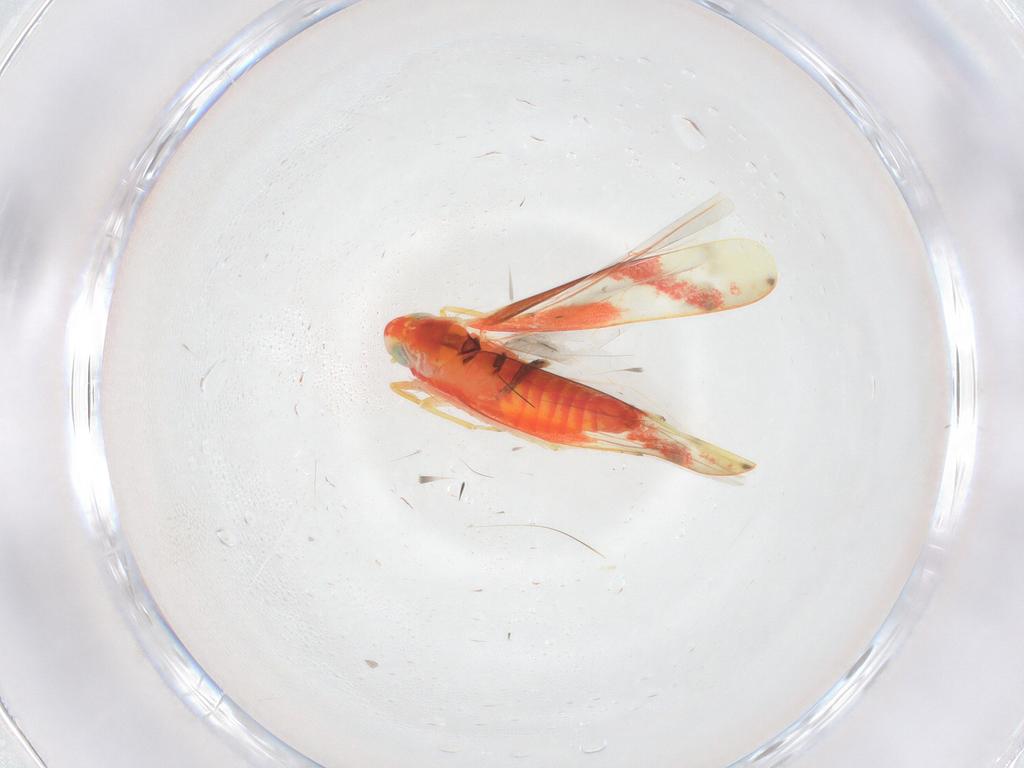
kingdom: Animalia
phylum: Arthropoda
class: Insecta
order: Hemiptera
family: Cicadellidae
